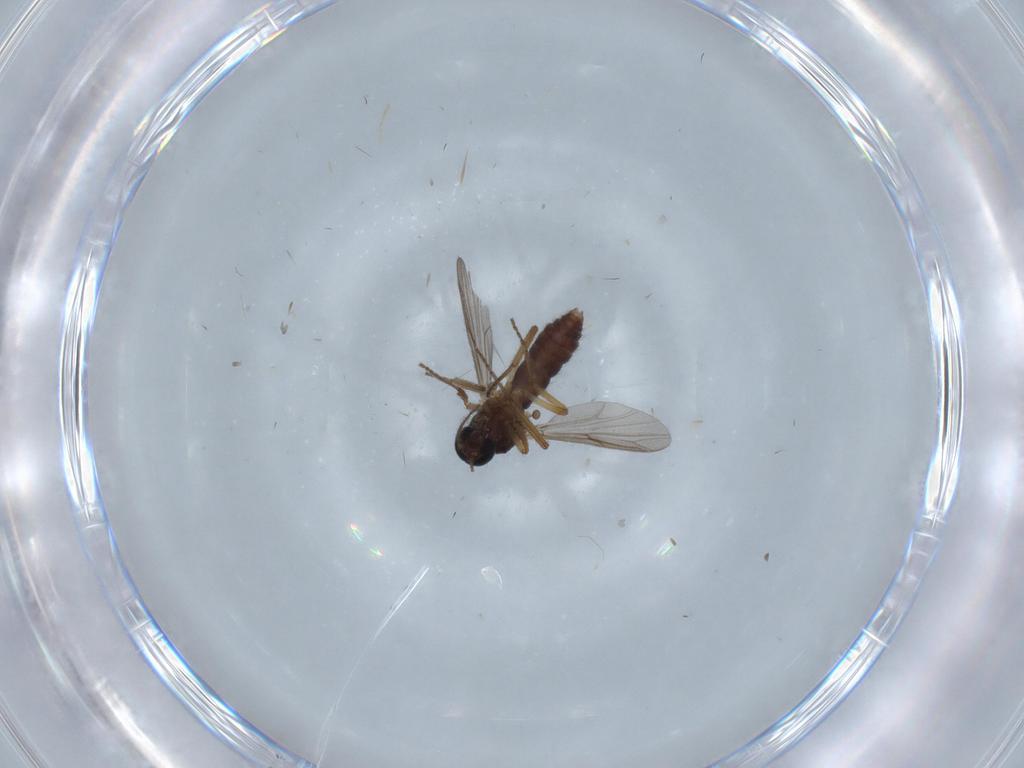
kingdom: Animalia
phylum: Arthropoda
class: Insecta
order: Diptera
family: Ceratopogonidae
